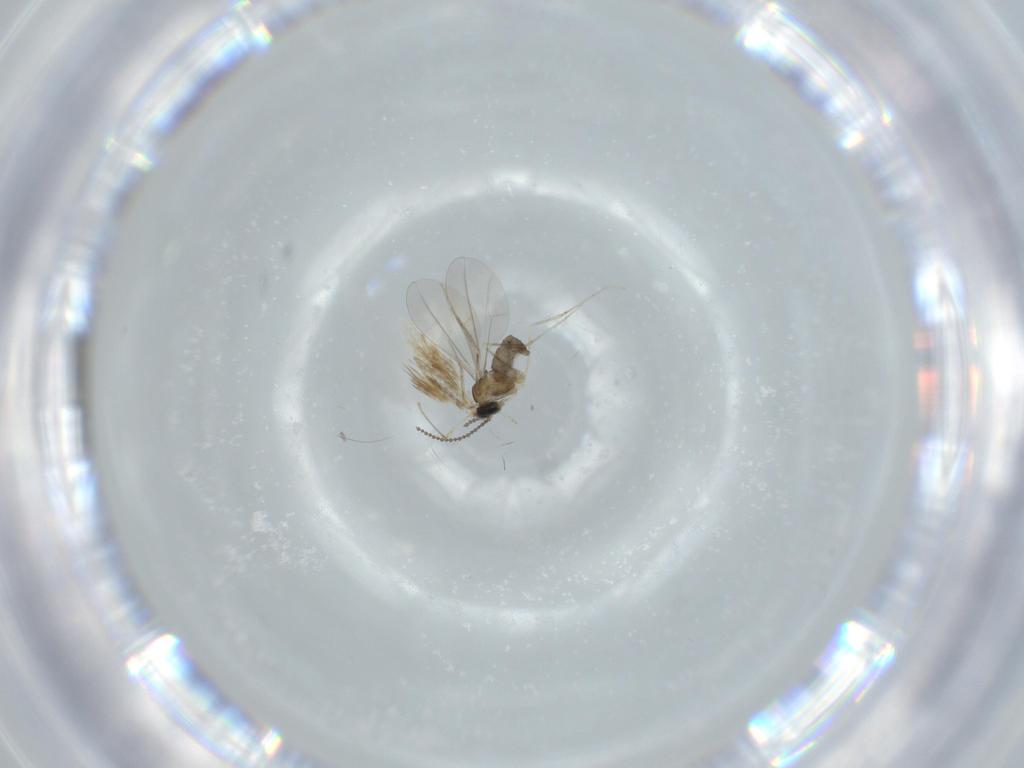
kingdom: Animalia
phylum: Arthropoda
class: Insecta
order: Diptera
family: Cecidomyiidae
